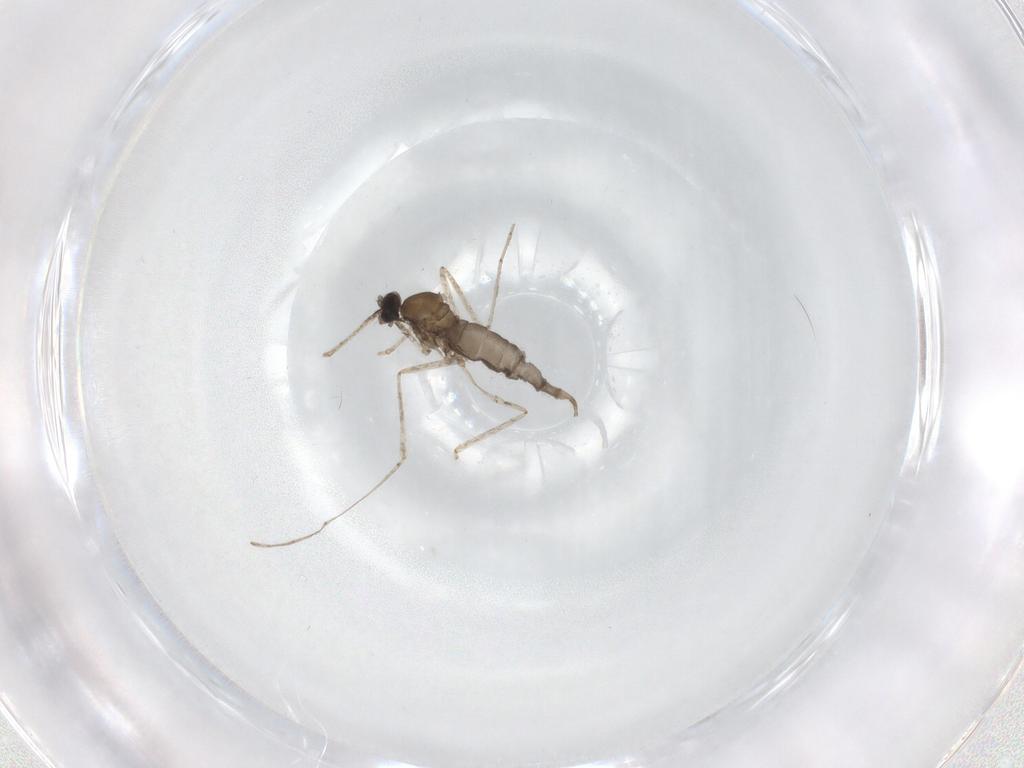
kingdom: Animalia
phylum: Arthropoda
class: Insecta
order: Diptera
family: Cecidomyiidae
